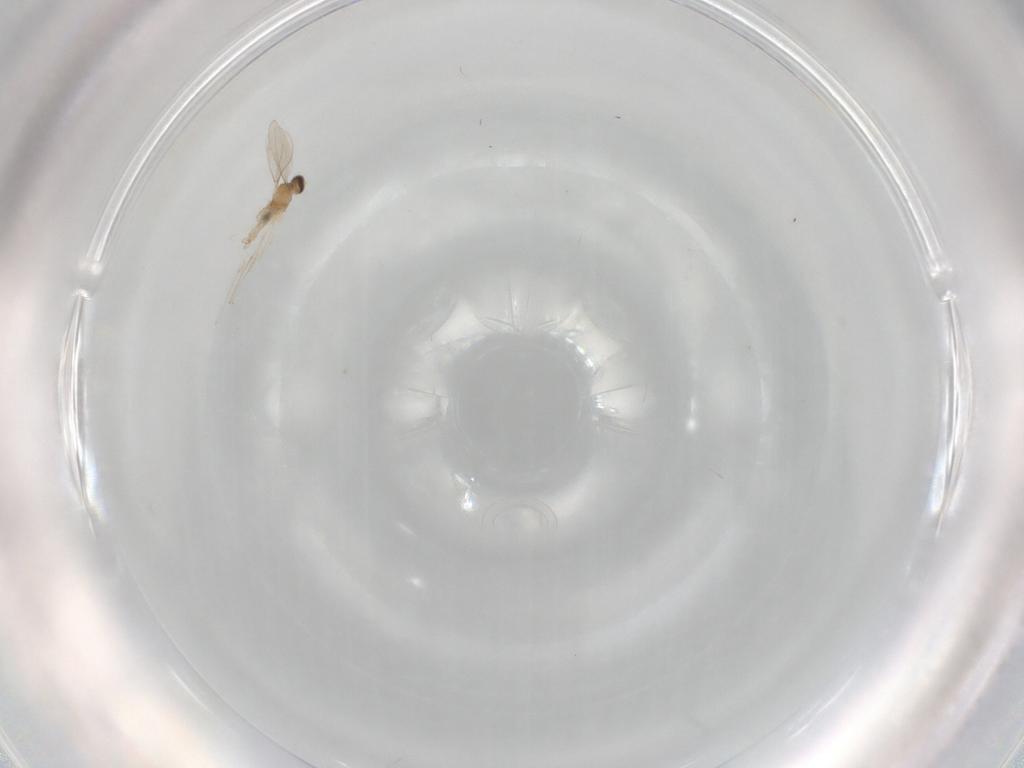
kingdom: Animalia
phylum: Arthropoda
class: Insecta
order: Diptera
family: Cecidomyiidae
